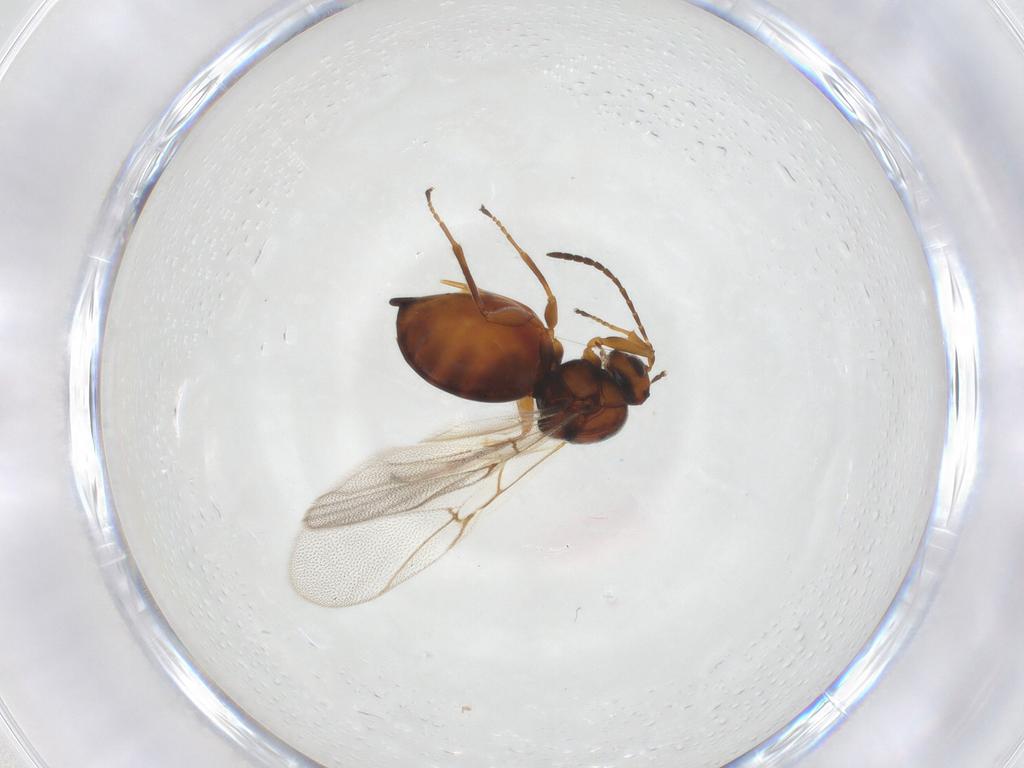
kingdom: Animalia
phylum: Arthropoda
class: Insecta
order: Hymenoptera
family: Cynipidae
